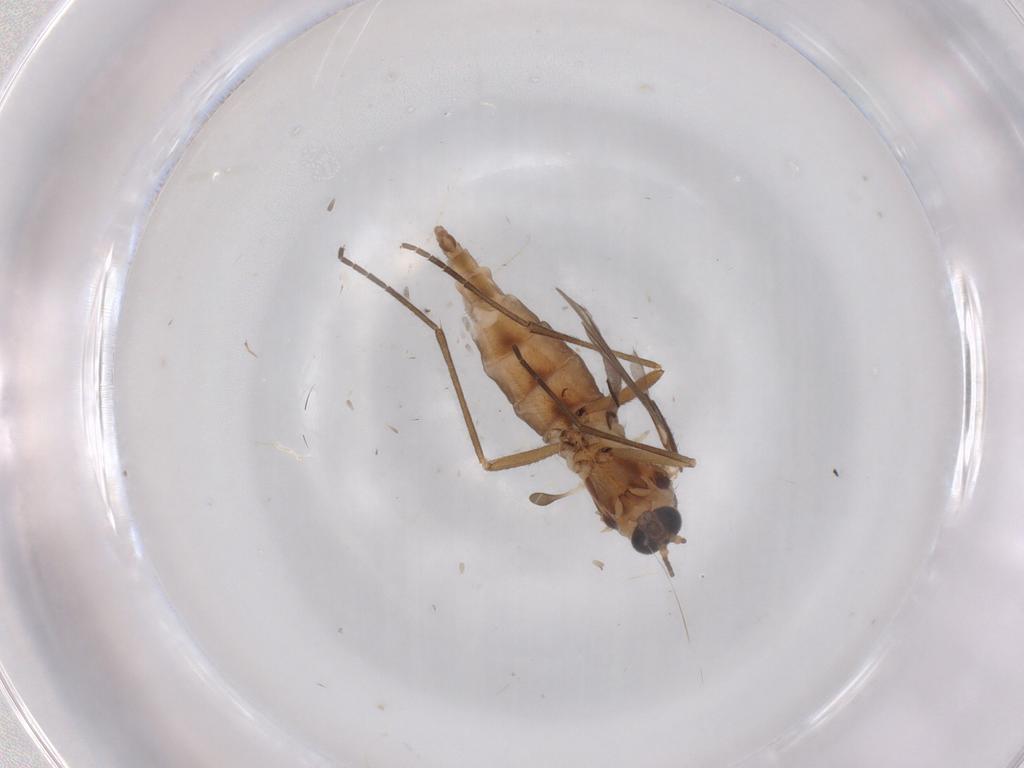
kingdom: Animalia
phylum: Arthropoda
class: Insecta
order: Diptera
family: Sciaridae
